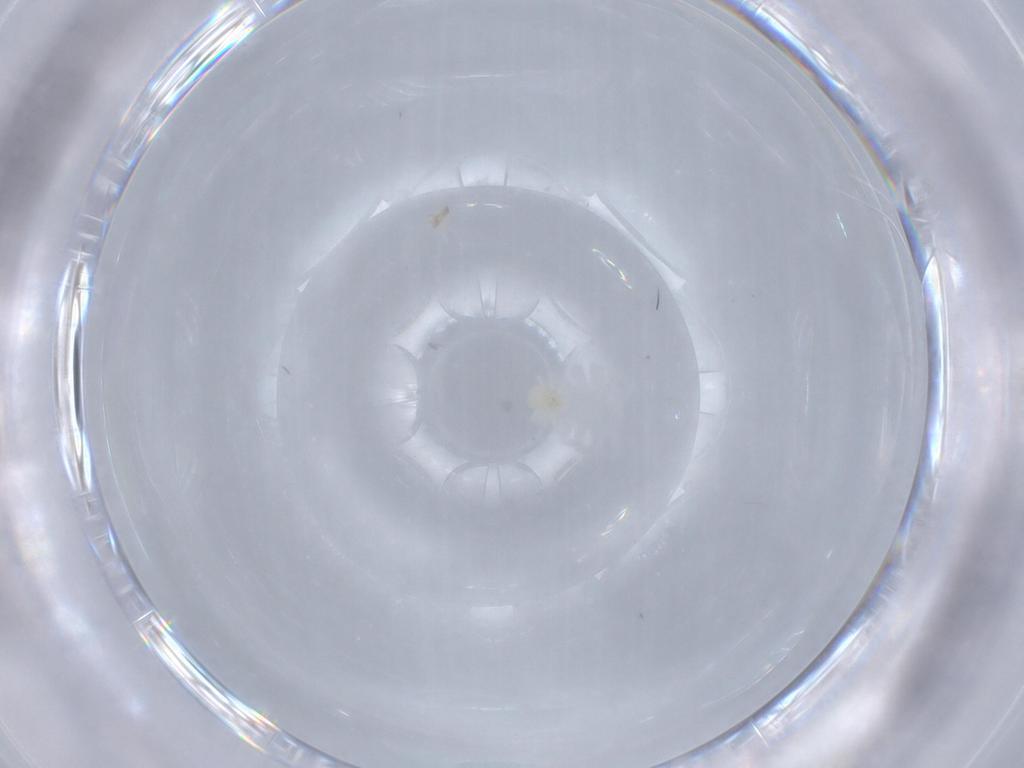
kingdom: Animalia
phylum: Arthropoda
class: Arachnida
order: Trombidiformes
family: Anystidae
